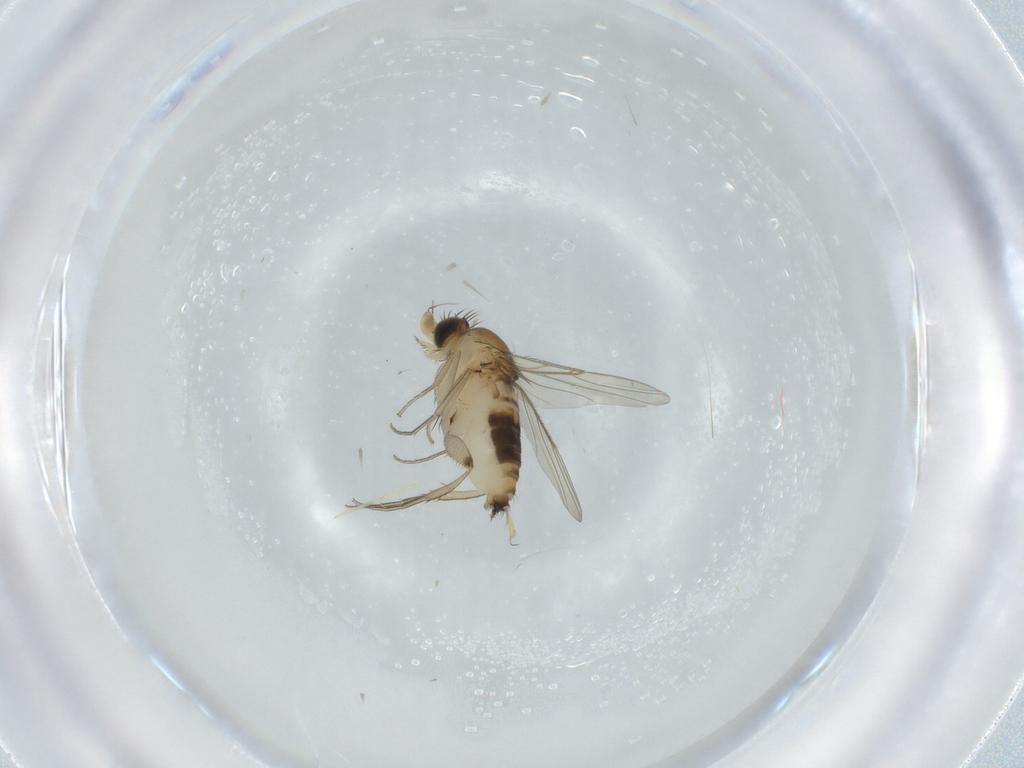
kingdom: Animalia
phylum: Arthropoda
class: Insecta
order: Diptera
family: Phoridae
